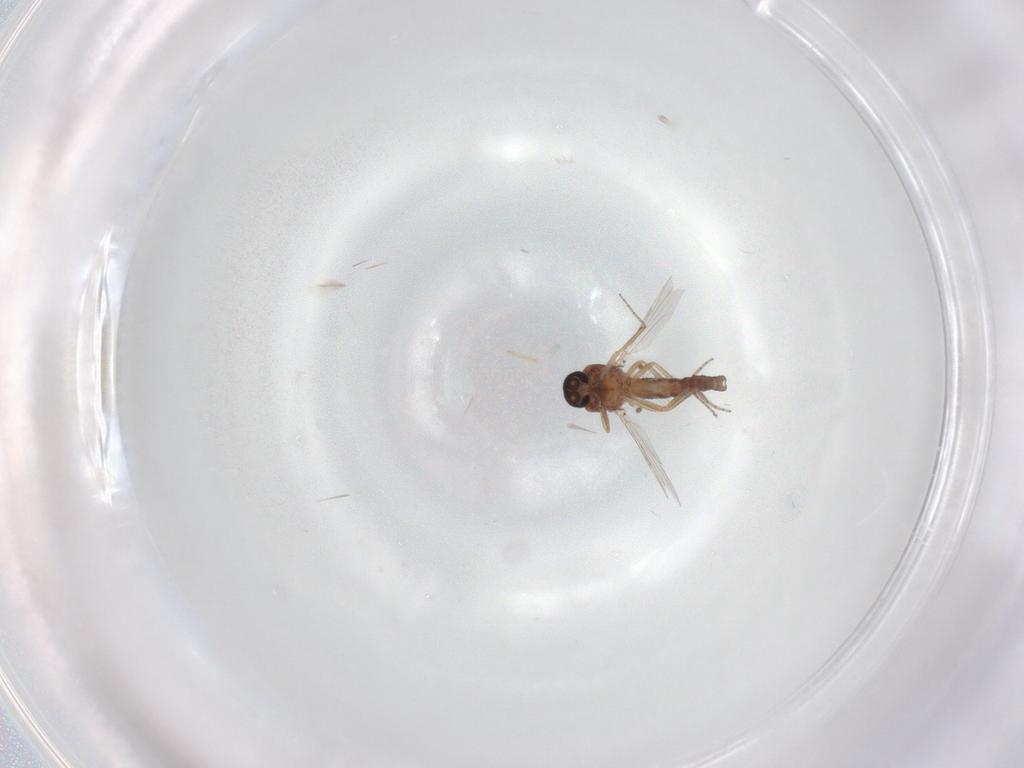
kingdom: Animalia
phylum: Arthropoda
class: Insecta
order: Diptera
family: Ceratopogonidae
